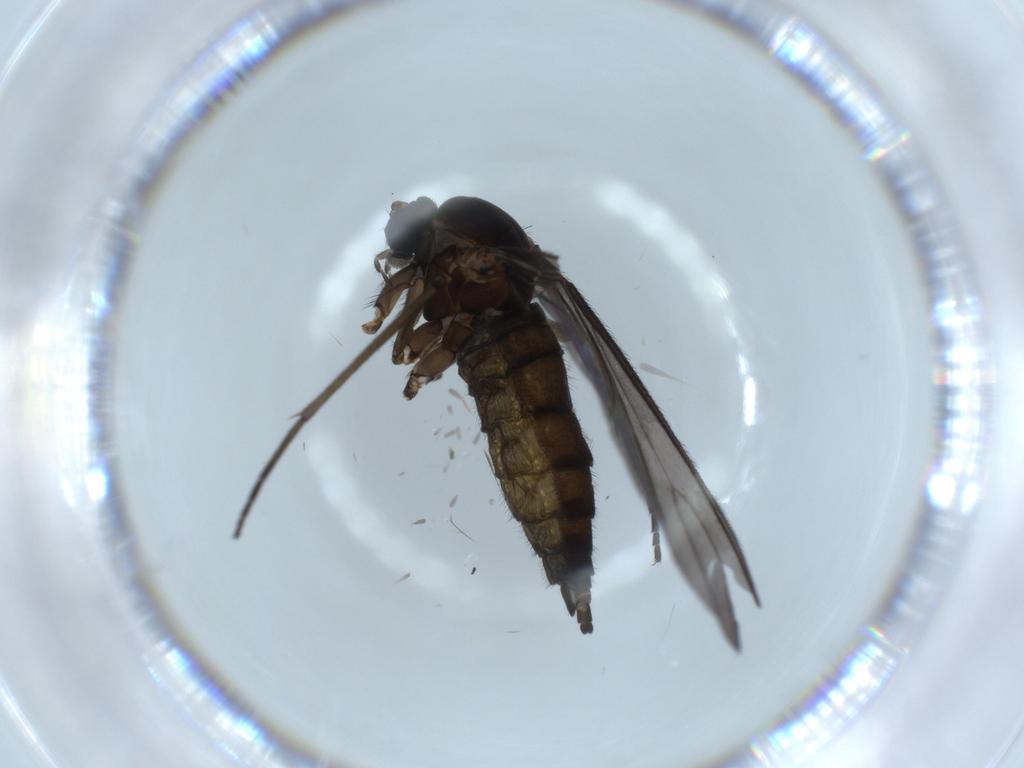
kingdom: Animalia
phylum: Arthropoda
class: Insecta
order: Diptera
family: Sciaridae
